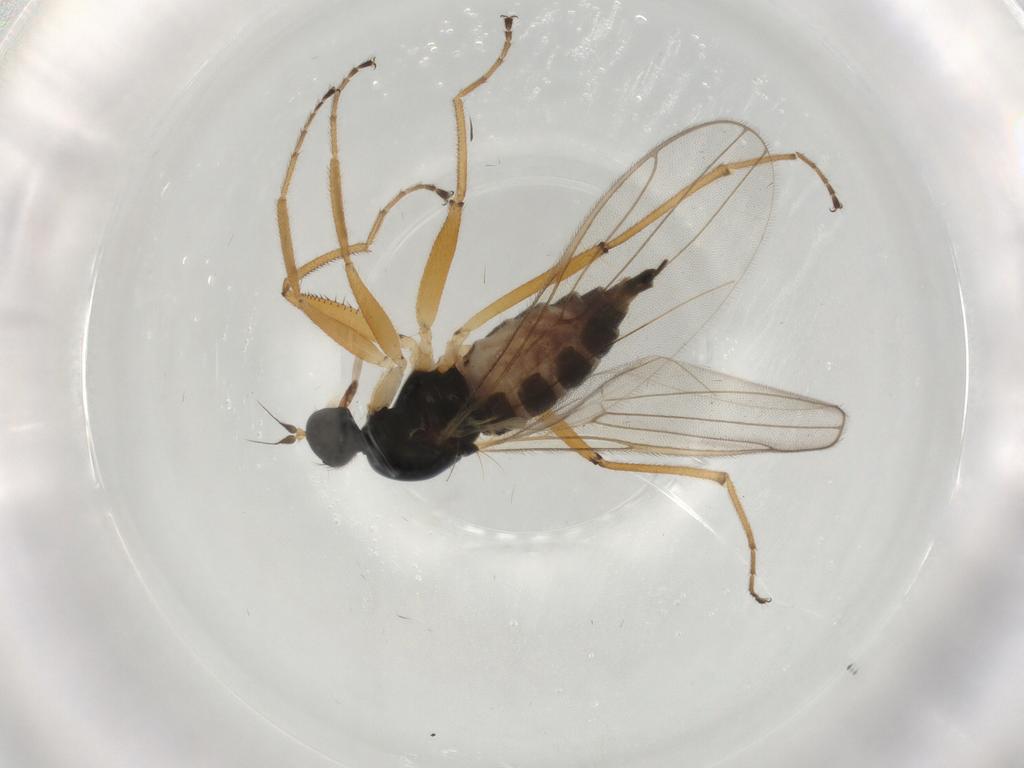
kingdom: Animalia
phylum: Arthropoda
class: Insecta
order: Diptera
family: Hybotidae
